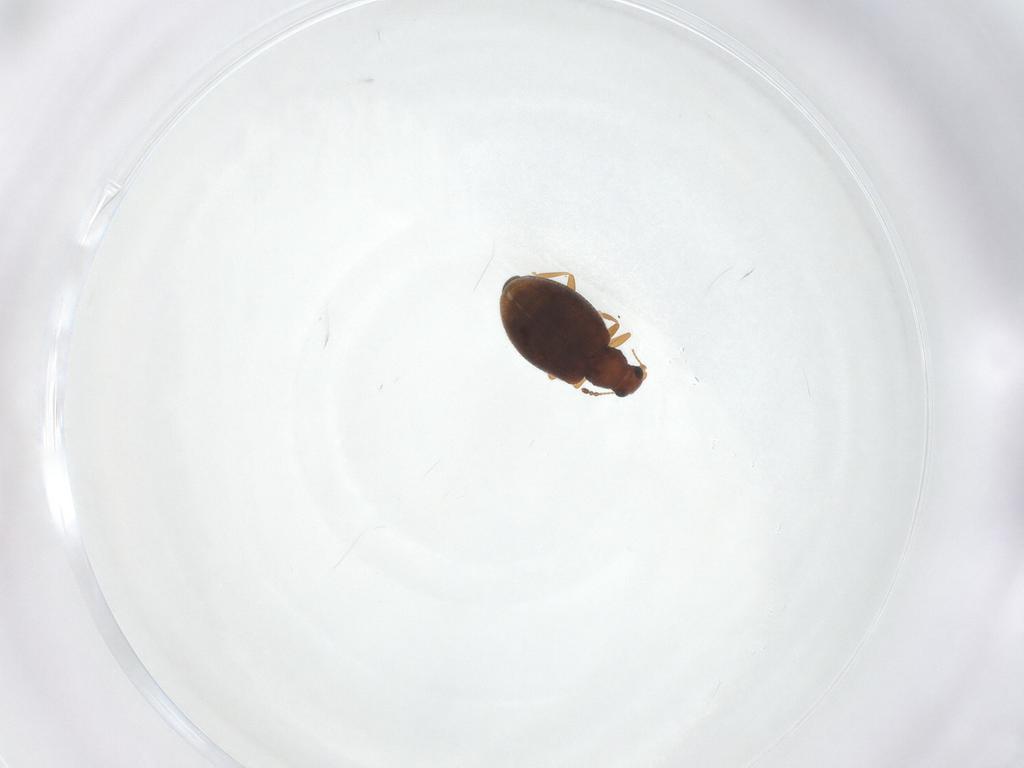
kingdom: Animalia
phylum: Arthropoda
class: Insecta
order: Coleoptera
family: Latridiidae
